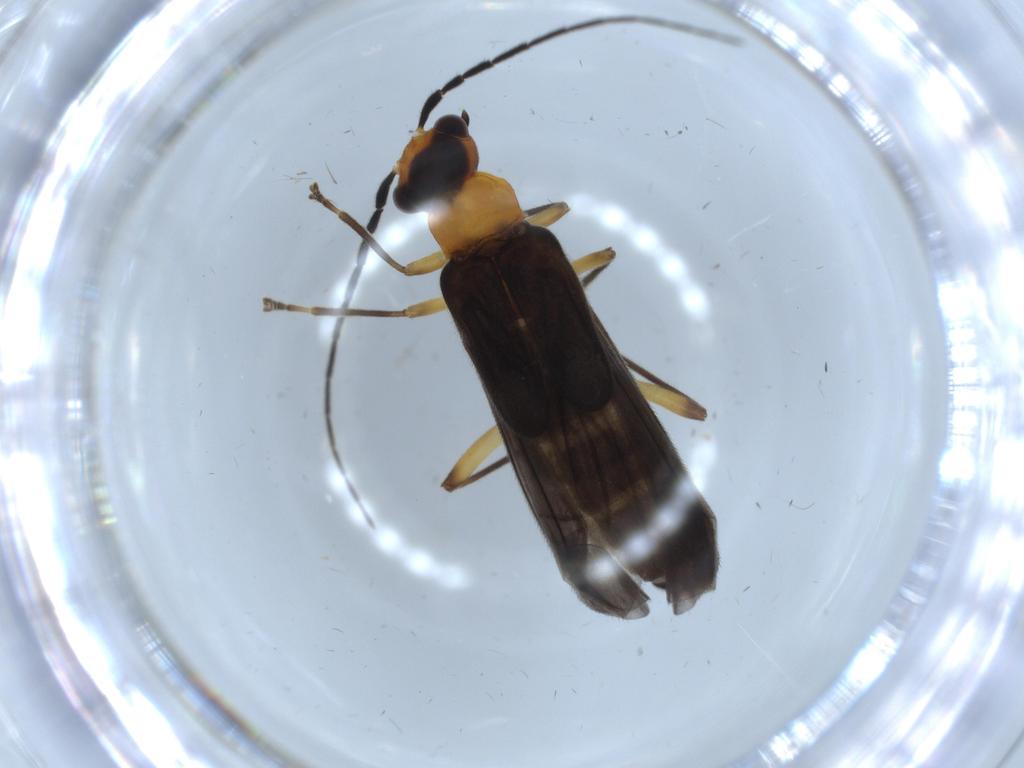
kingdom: Animalia
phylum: Arthropoda
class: Insecta
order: Coleoptera
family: Cantharidae
